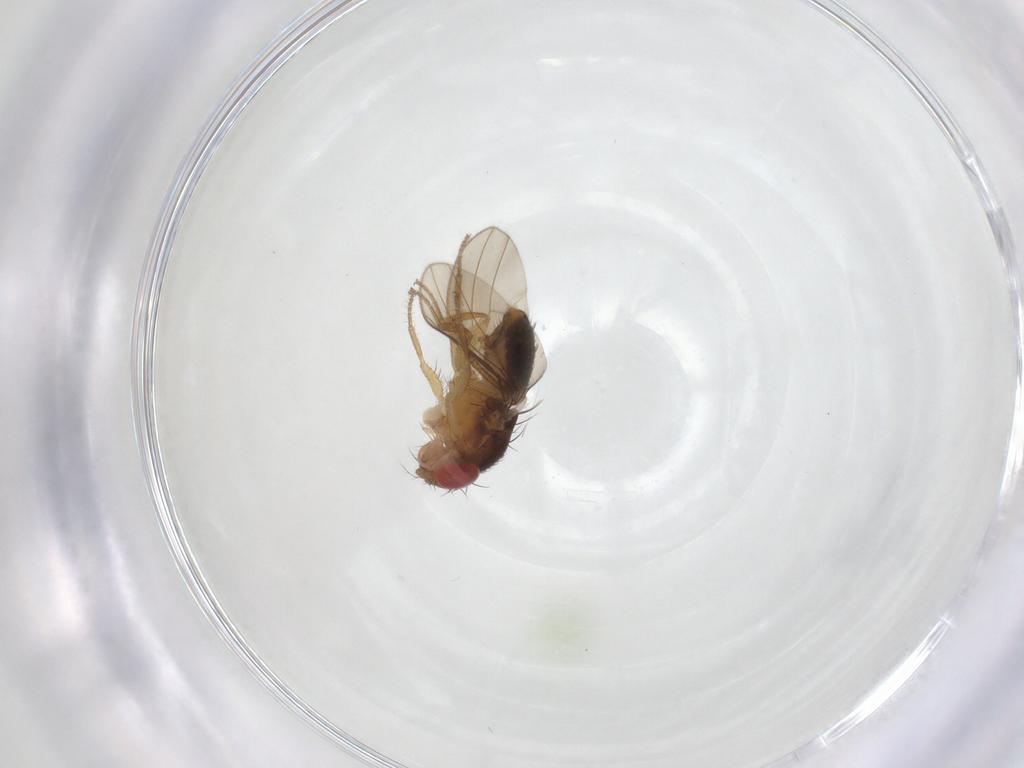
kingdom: Animalia
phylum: Arthropoda
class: Insecta
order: Diptera
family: Drosophilidae
